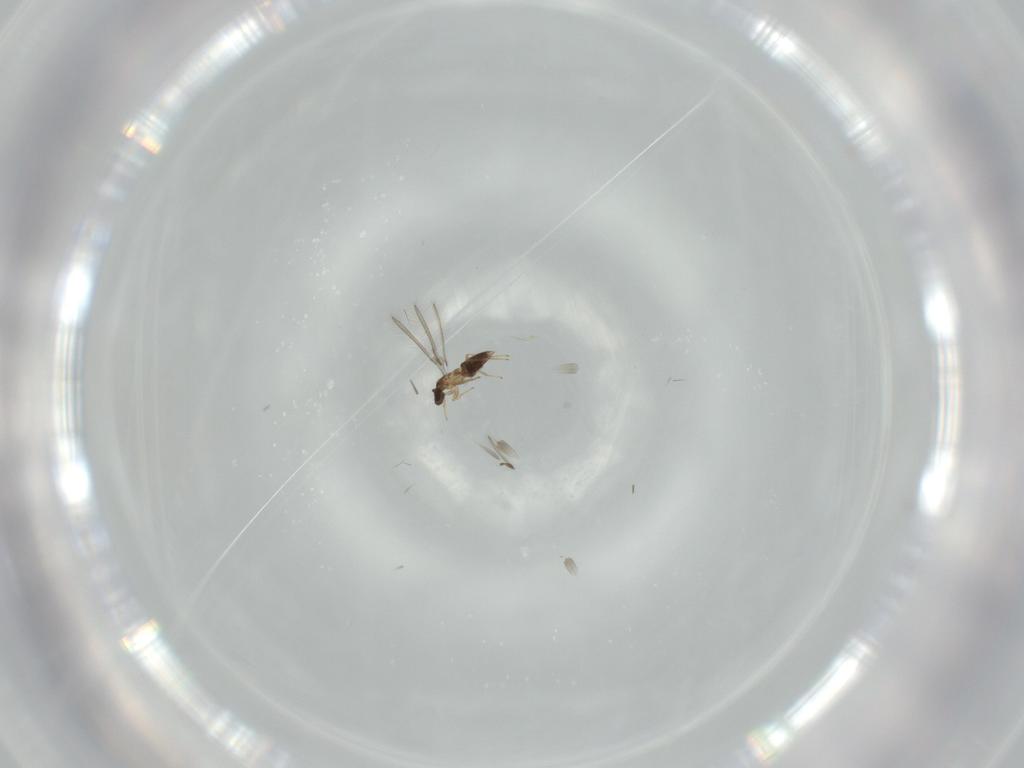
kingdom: Animalia
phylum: Arthropoda
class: Insecta
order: Hymenoptera
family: Mymaridae
